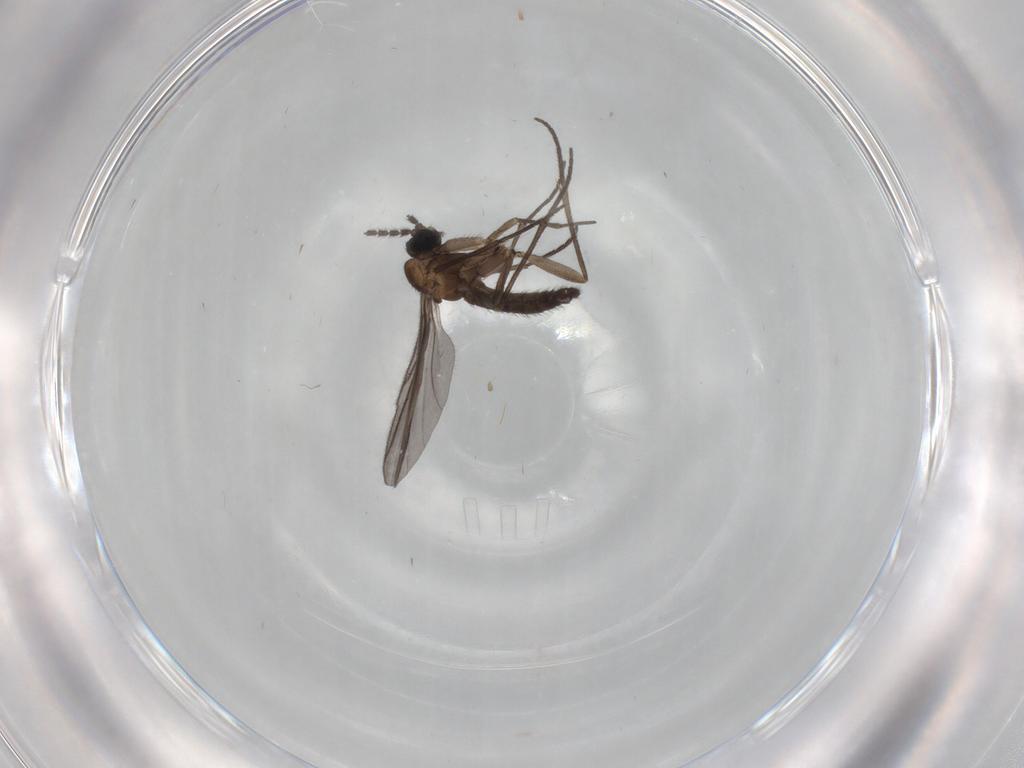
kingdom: Animalia
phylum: Arthropoda
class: Insecta
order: Diptera
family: Sciaridae
